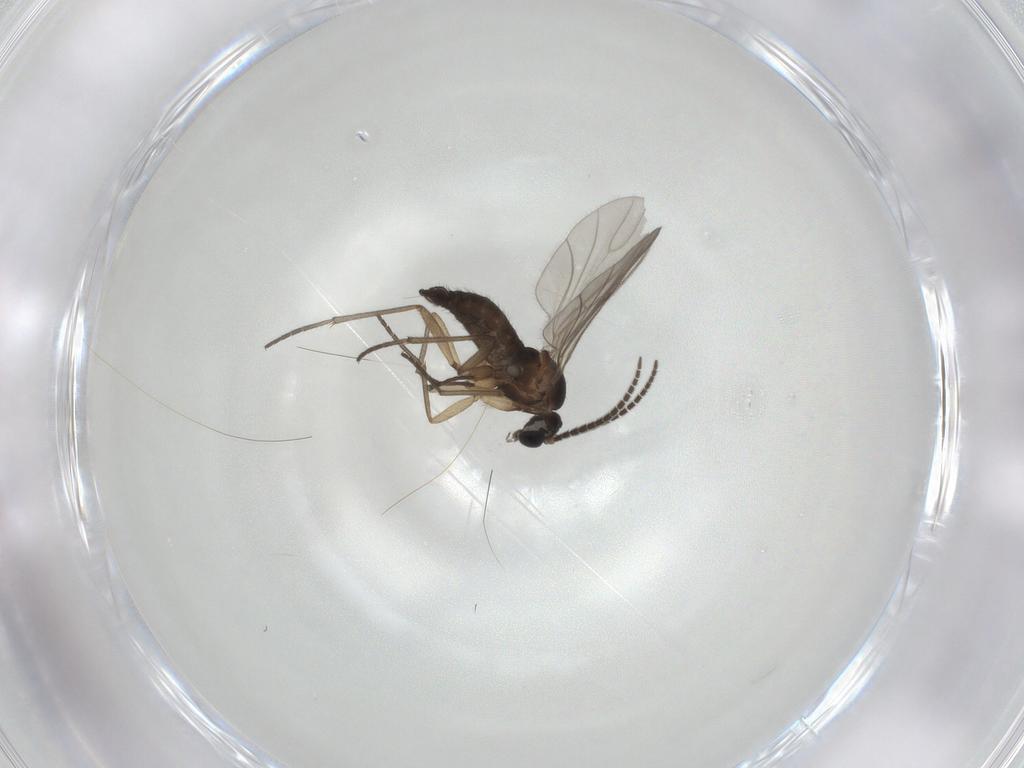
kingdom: Animalia
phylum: Arthropoda
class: Insecta
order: Diptera
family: Sciaridae
